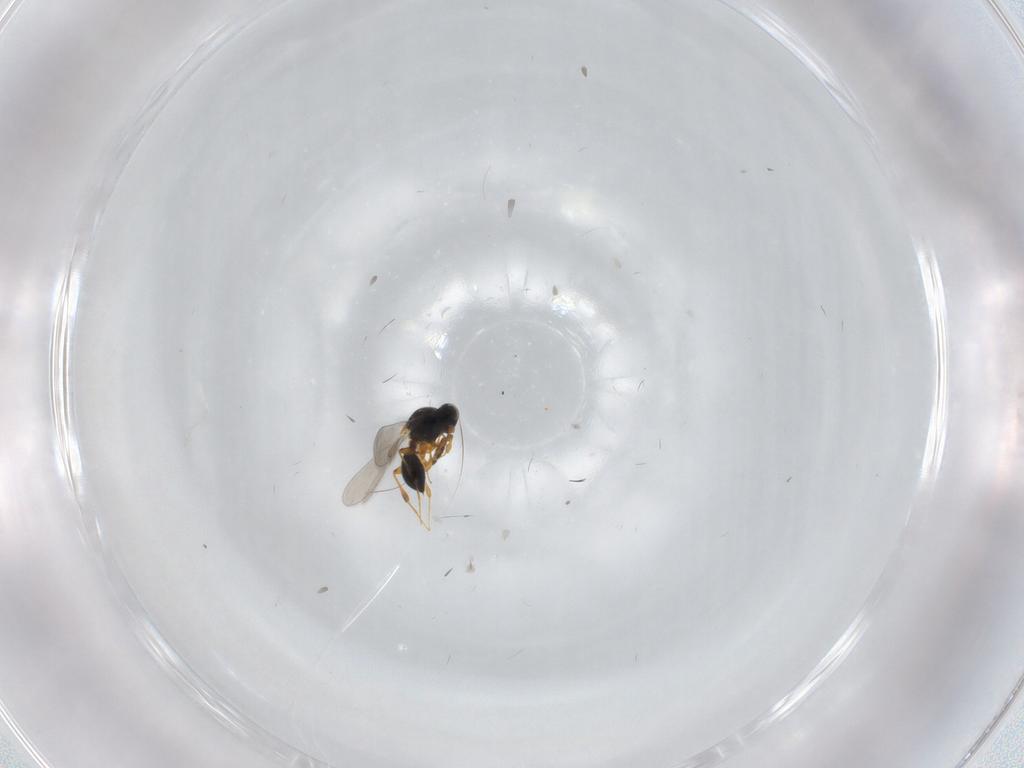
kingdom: Animalia
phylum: Arthropoda
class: Insecta
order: Hymenoptera
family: Platygastridae
